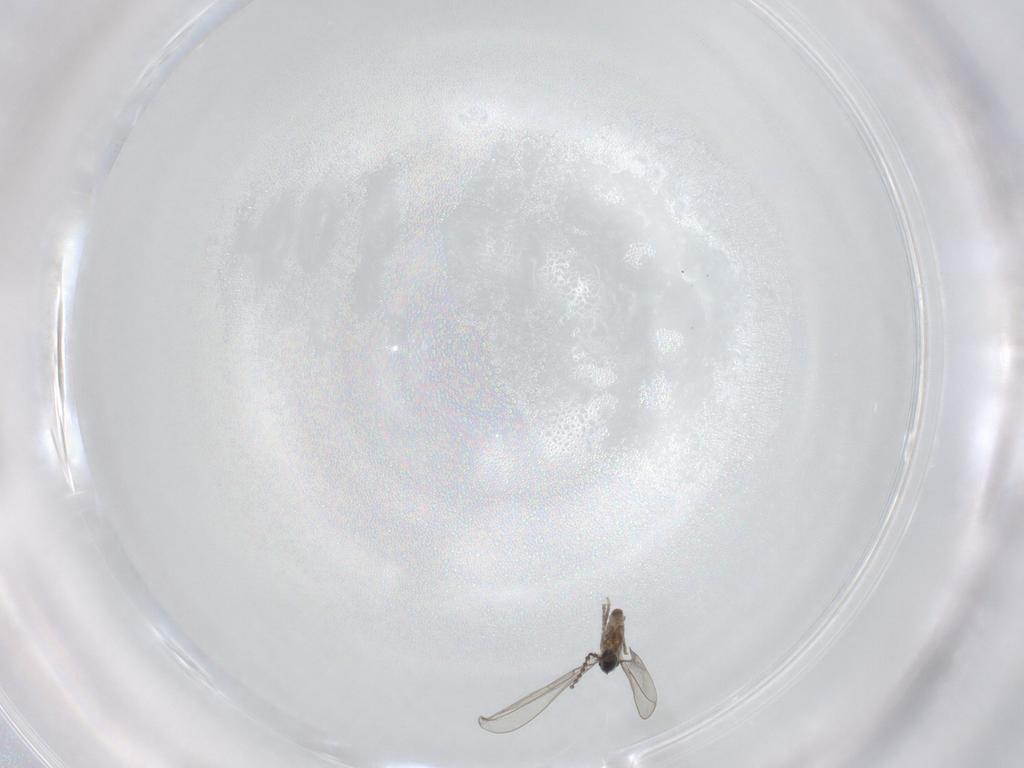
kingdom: Animalia
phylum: Arthropoda
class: Insecta
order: Diptera
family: Cecidomyiidae
